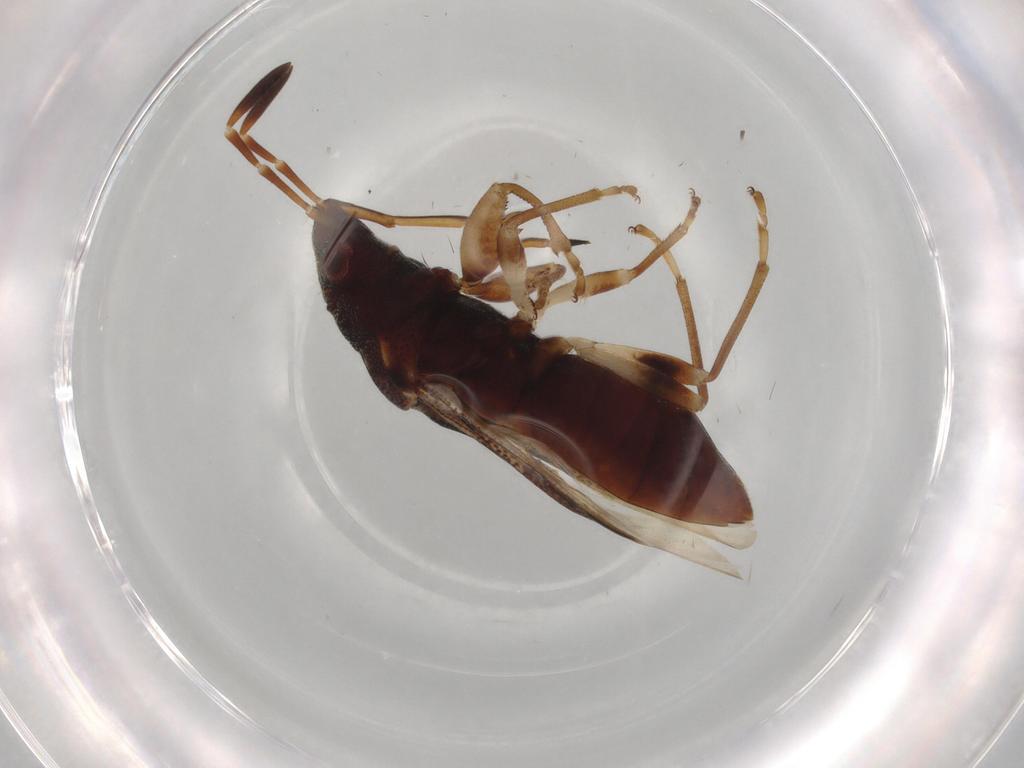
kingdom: Animalia
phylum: Arthropoda
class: Insecta
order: Hemiptera
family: Rhyparochromidae
